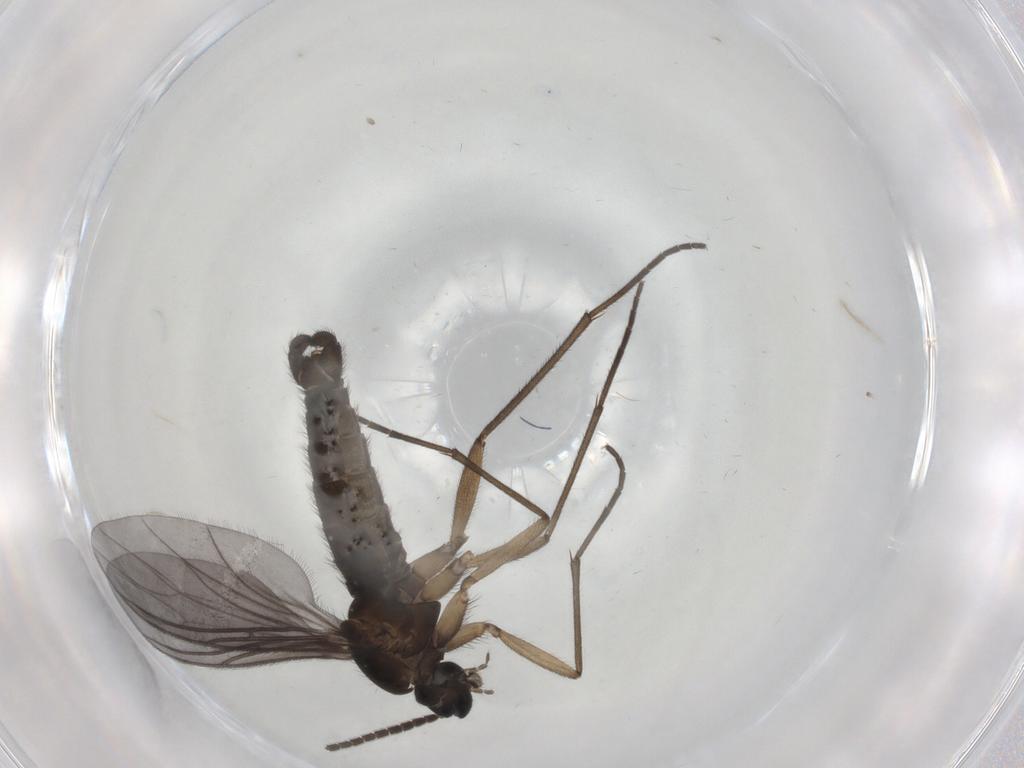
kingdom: Animalia
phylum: Arthropoda
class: Insecta
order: Diptera
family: Sciaridae
